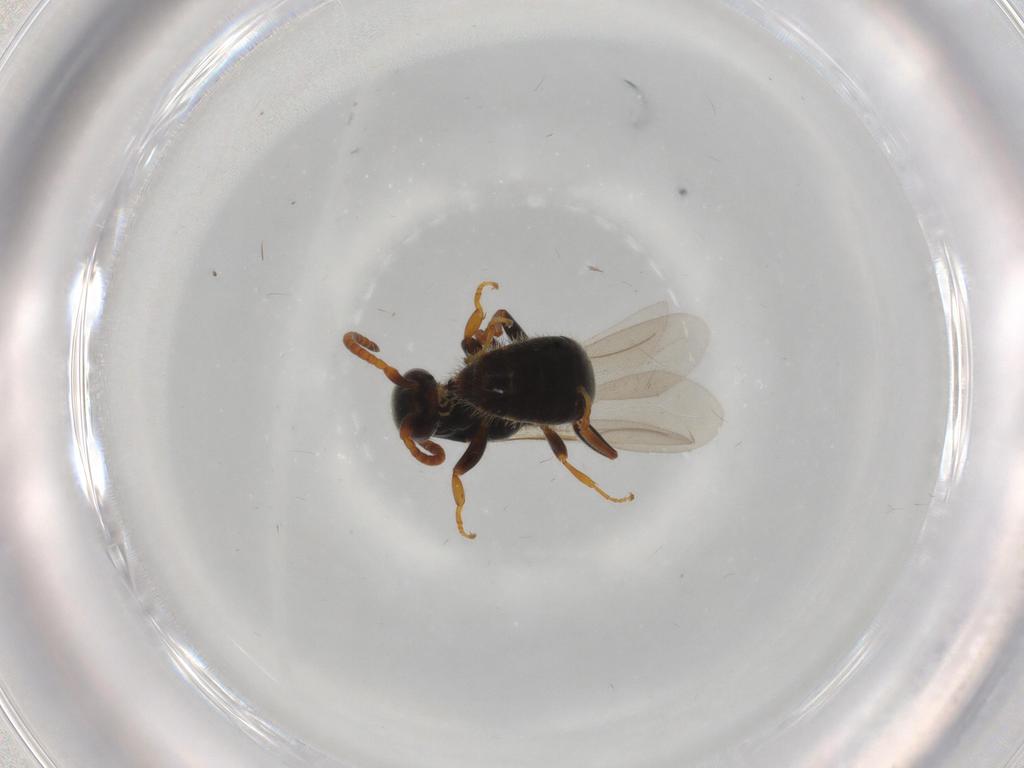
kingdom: Animalia
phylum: Arthropoda
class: Insecta
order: Hymenoptera
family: Bethylidae
